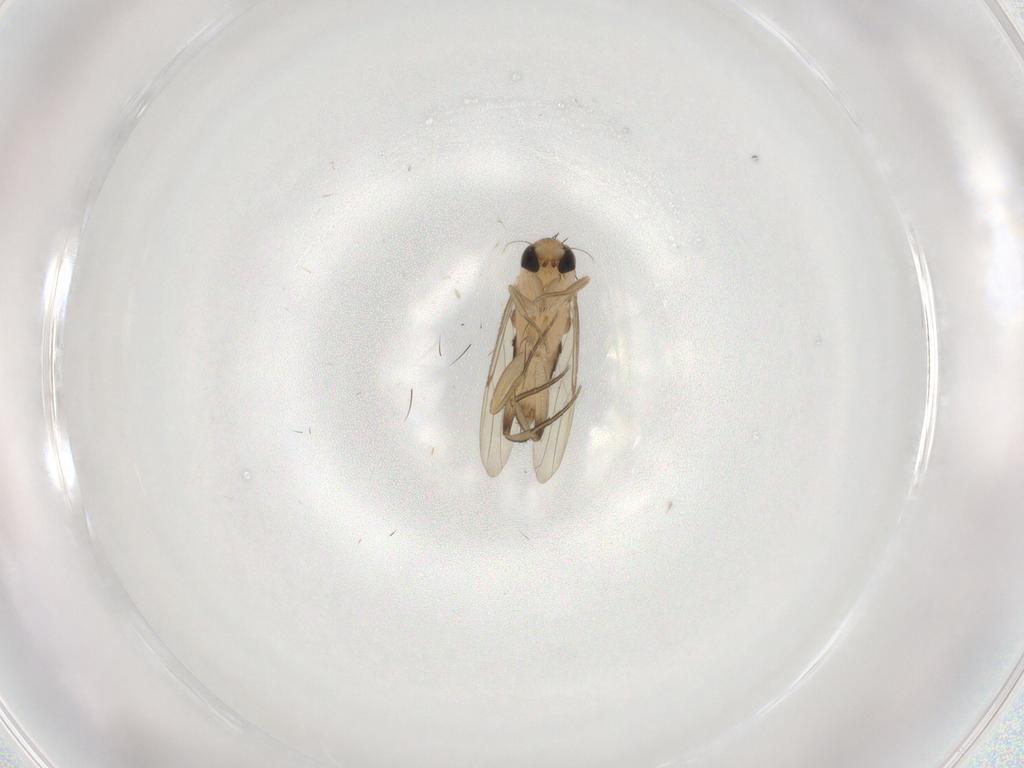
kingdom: Animalia
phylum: Arthropoda
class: Insecta
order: Diptera
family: Phoridae
